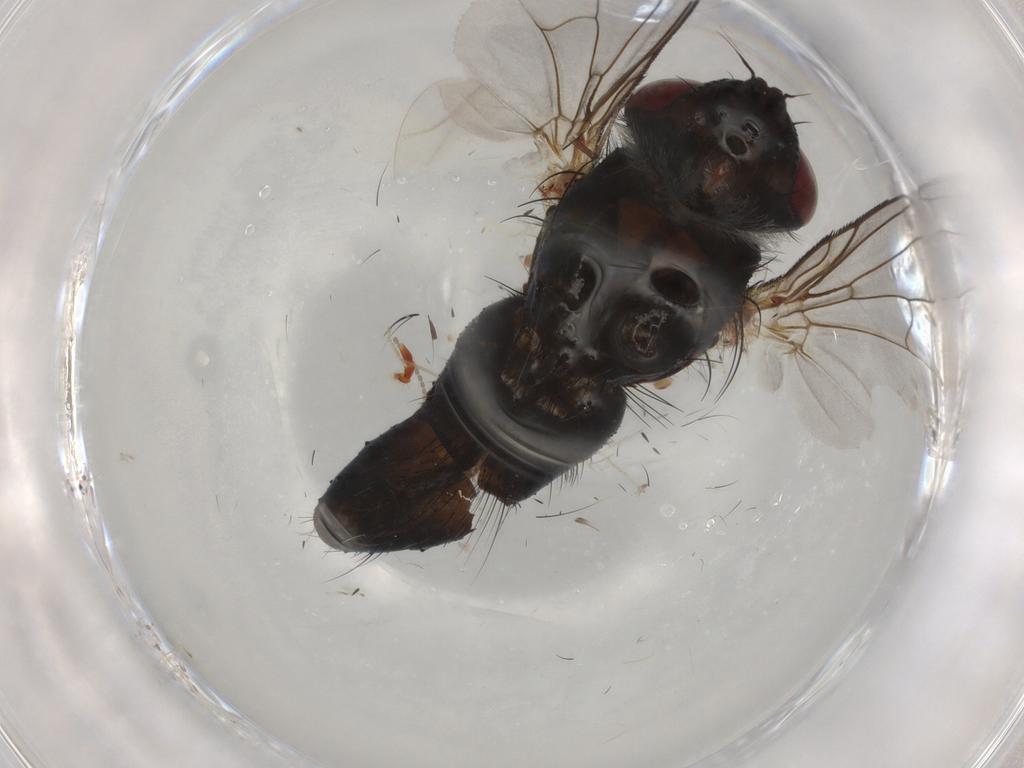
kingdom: Animalia
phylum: Arthropoda
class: Insecta
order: Diptera
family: Tachinidae
